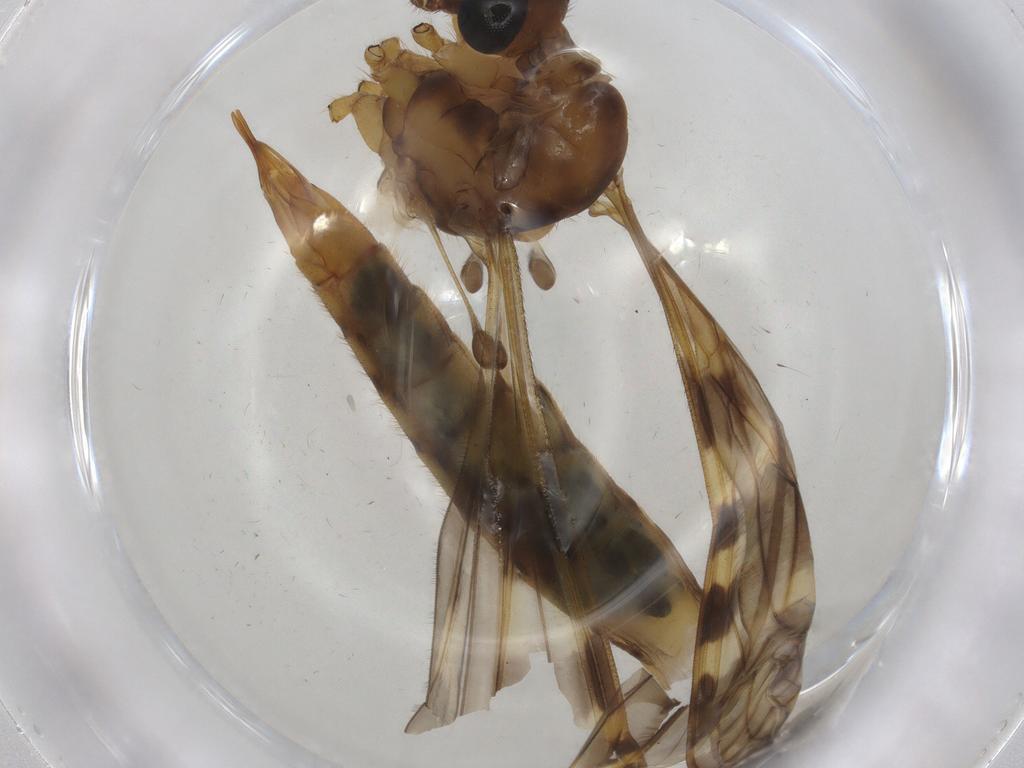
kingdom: Animalia
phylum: Arthropoda
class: Insecta
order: Diptera
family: Cecidomyiidae
